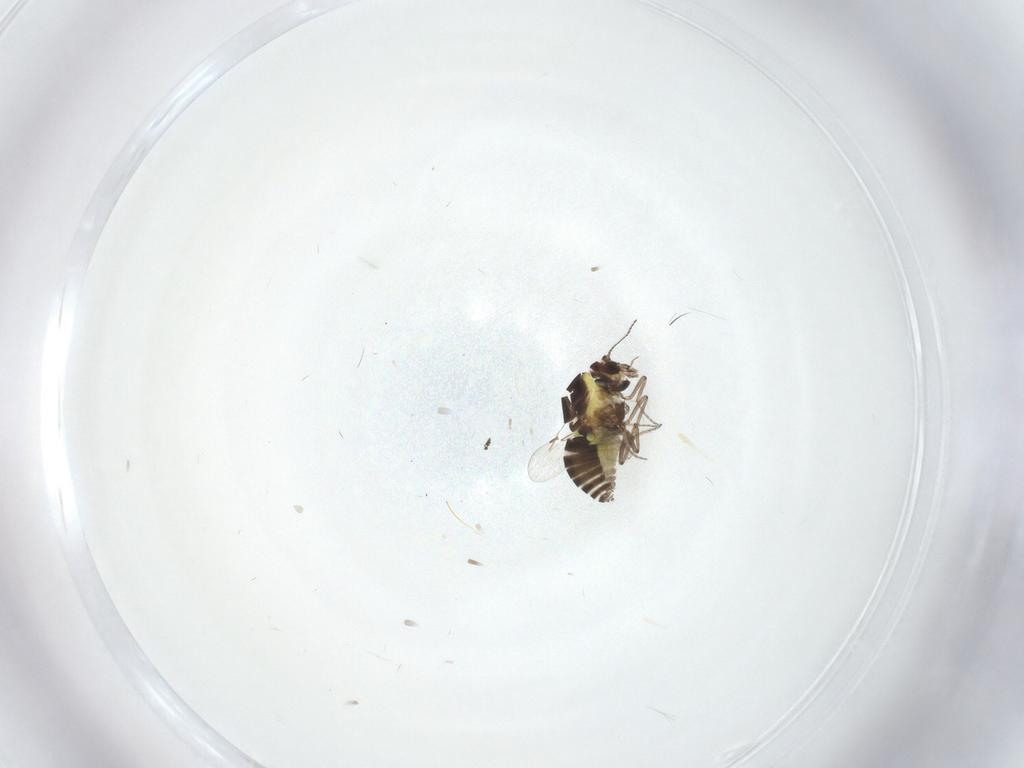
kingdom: Animalia
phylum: Arthropoda
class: Insecta
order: Diptera
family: Ceratopogonidae
